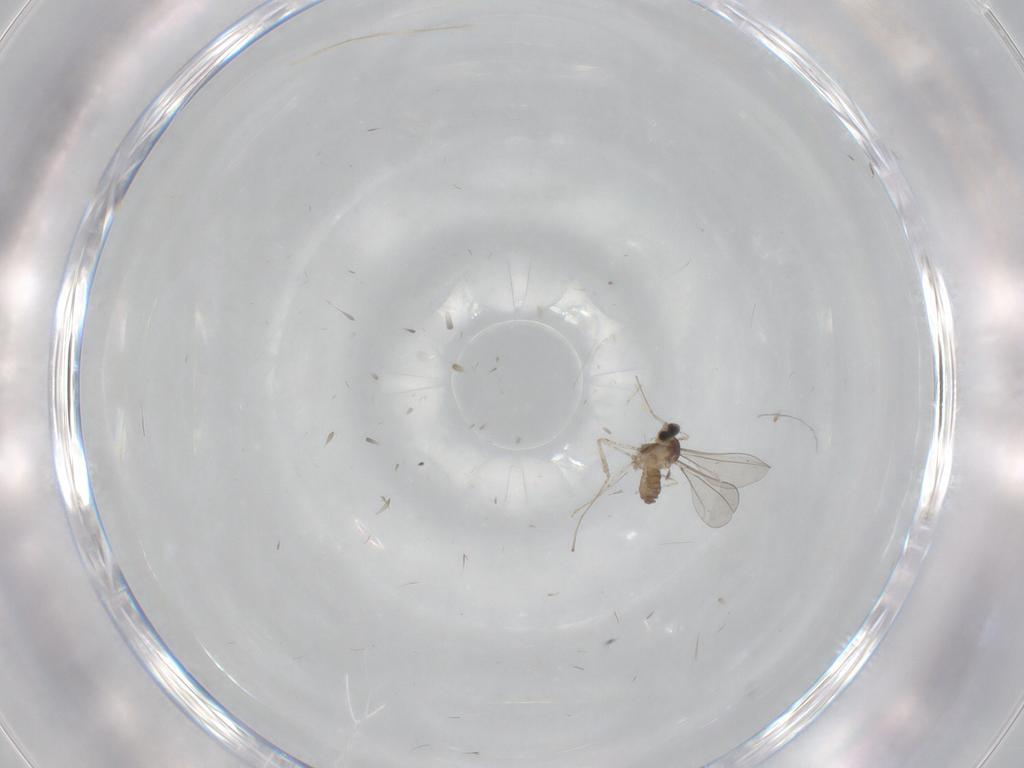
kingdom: Animalia
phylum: Arthropoda
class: Insecta
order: Diptera
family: Cecidomyiidae
